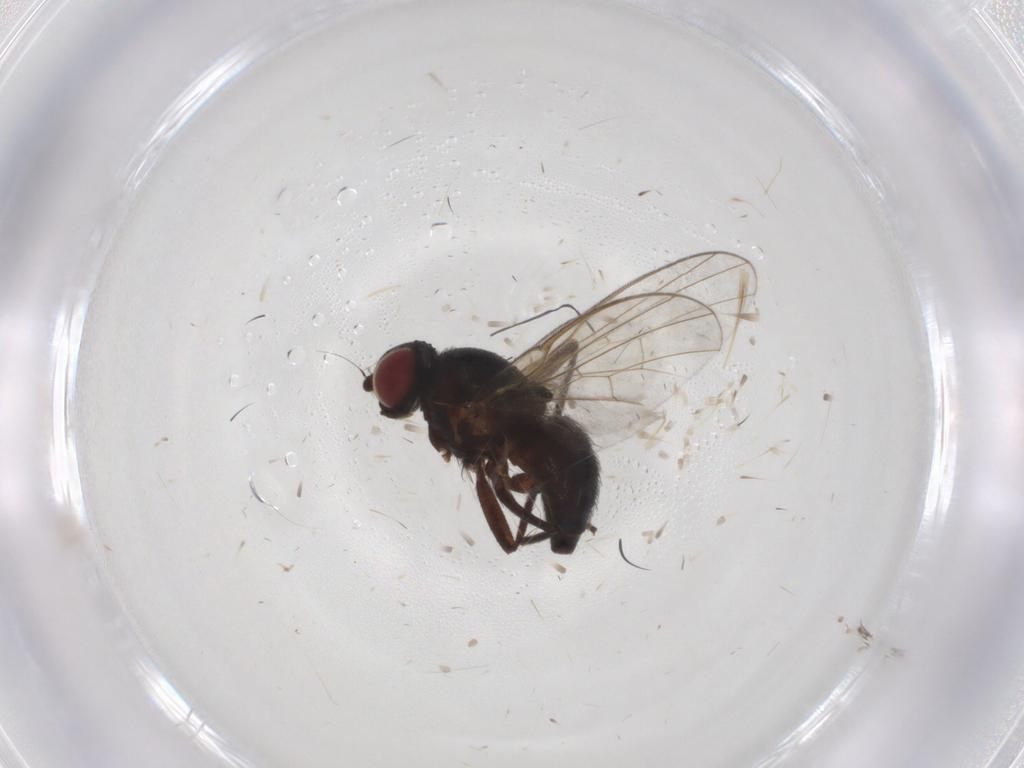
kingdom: Animalia
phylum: Arthropoda
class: Insecta
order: Diptera
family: Agromyzidae
